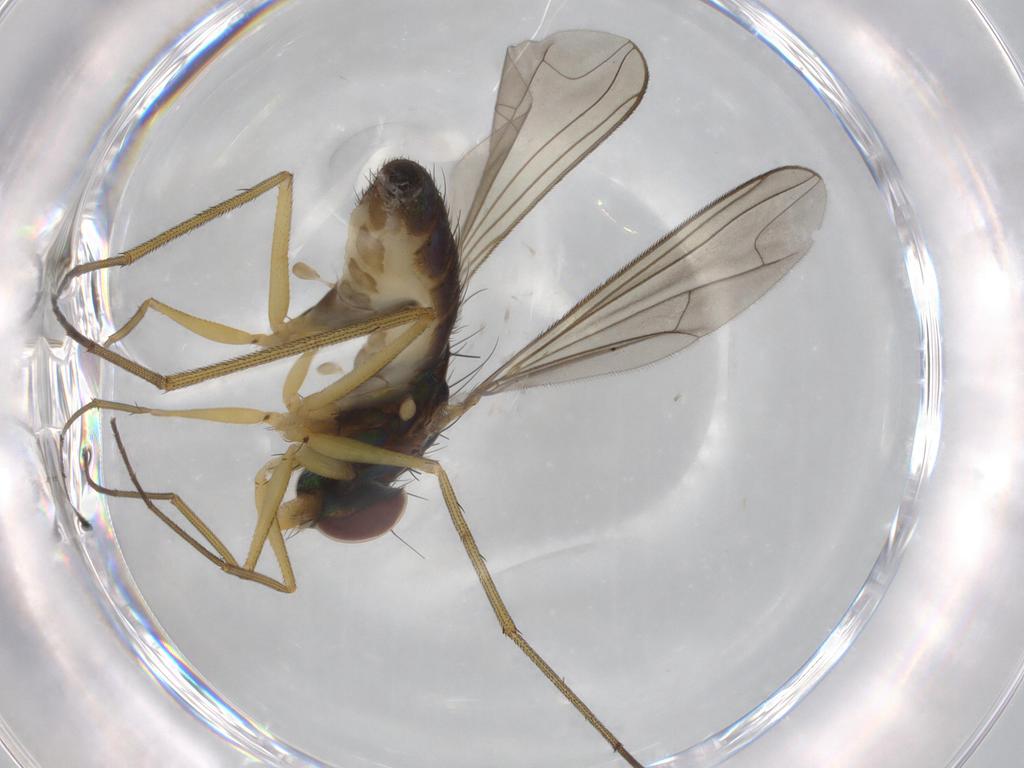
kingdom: Animalia
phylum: Arthropoda
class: Insecta
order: Diptera
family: Dolichopodidae
